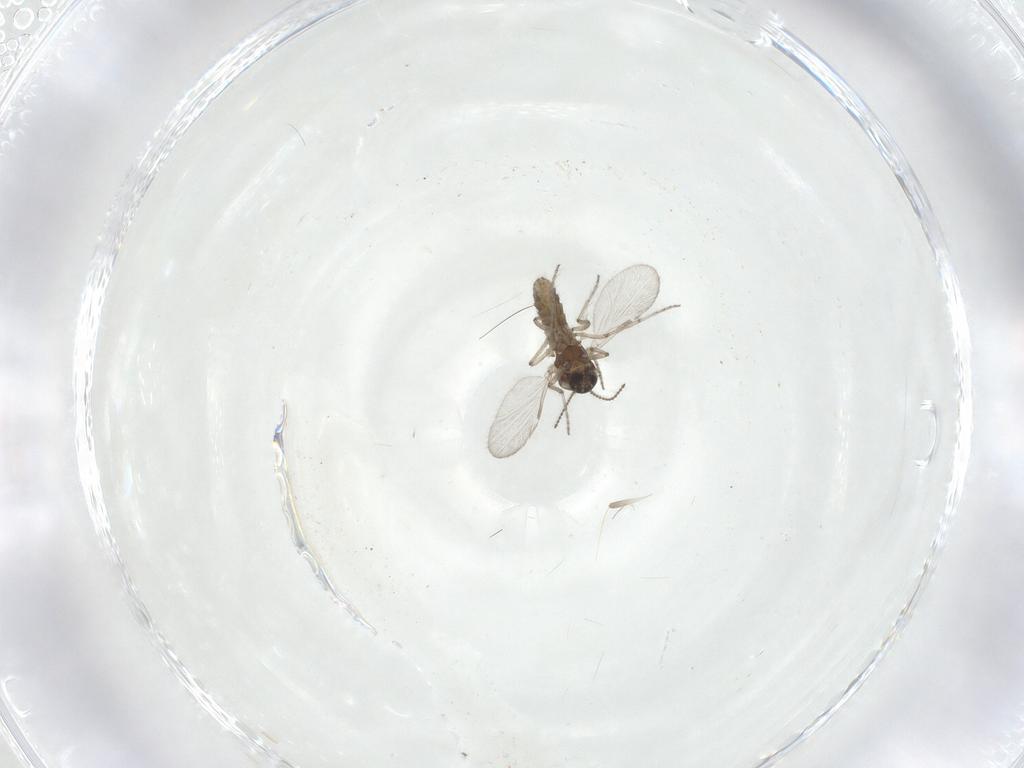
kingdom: Animalia
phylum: Arthropoda
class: Insecta
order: Diptera
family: Ceratopogonidae
